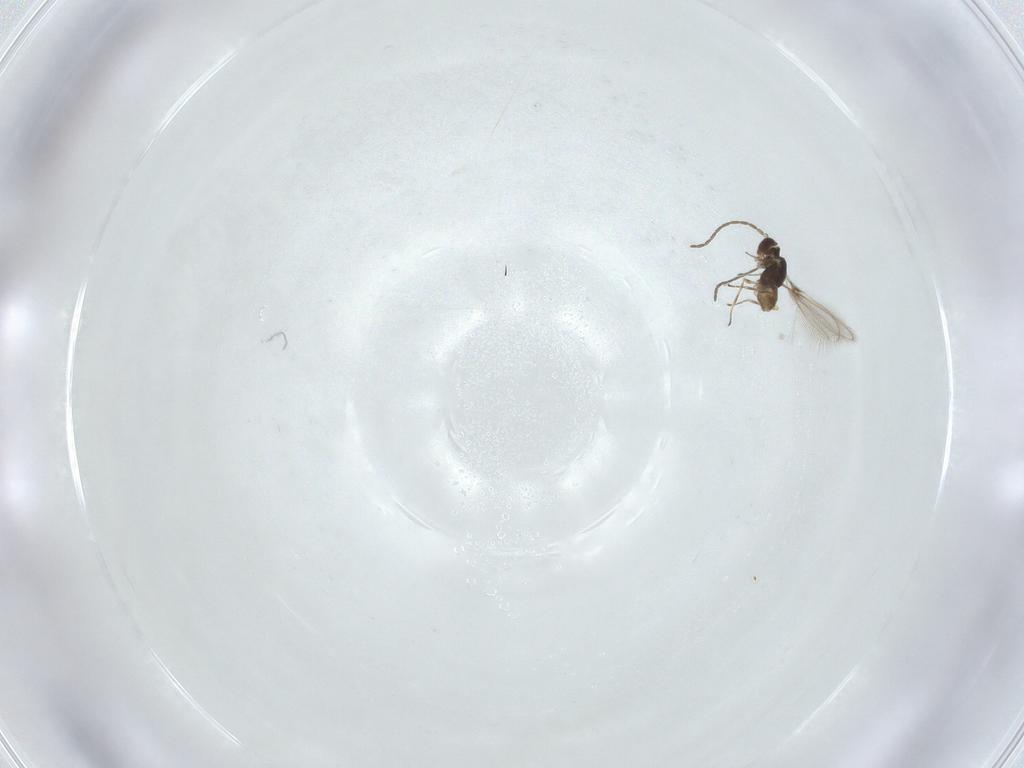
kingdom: Animalia
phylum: Arthropoda
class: Insecta
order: Hymenoptera
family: Mymaridae
